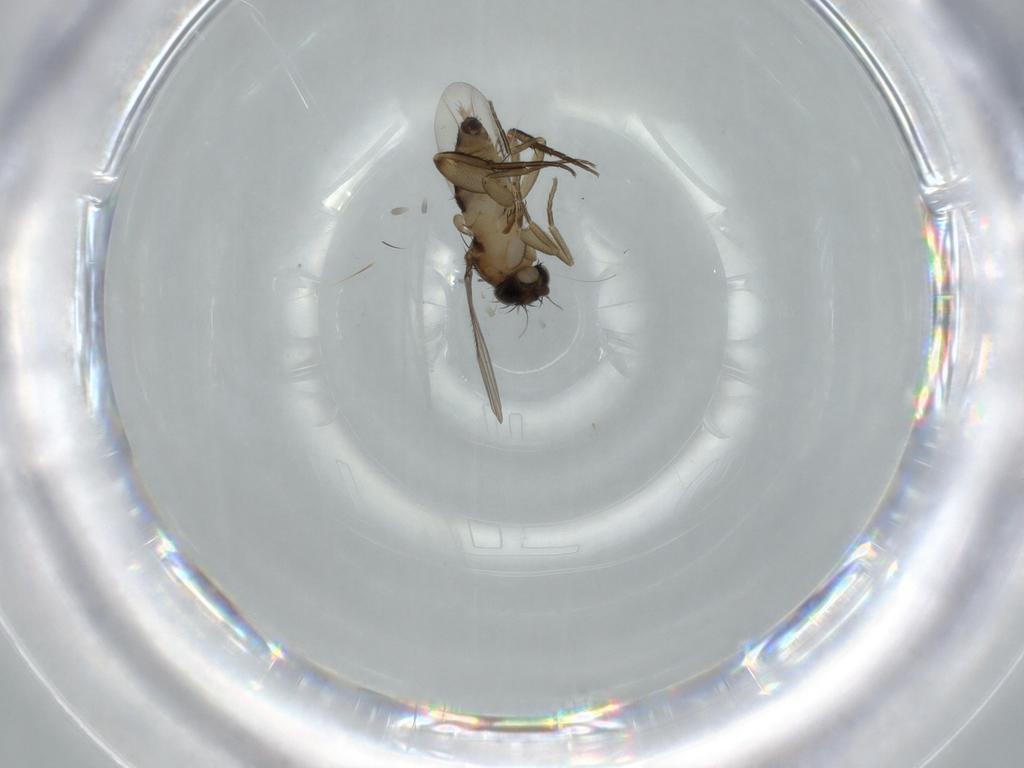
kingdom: Animalia
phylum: Arthropoda
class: Insecta
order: Diptera
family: Phoridae
